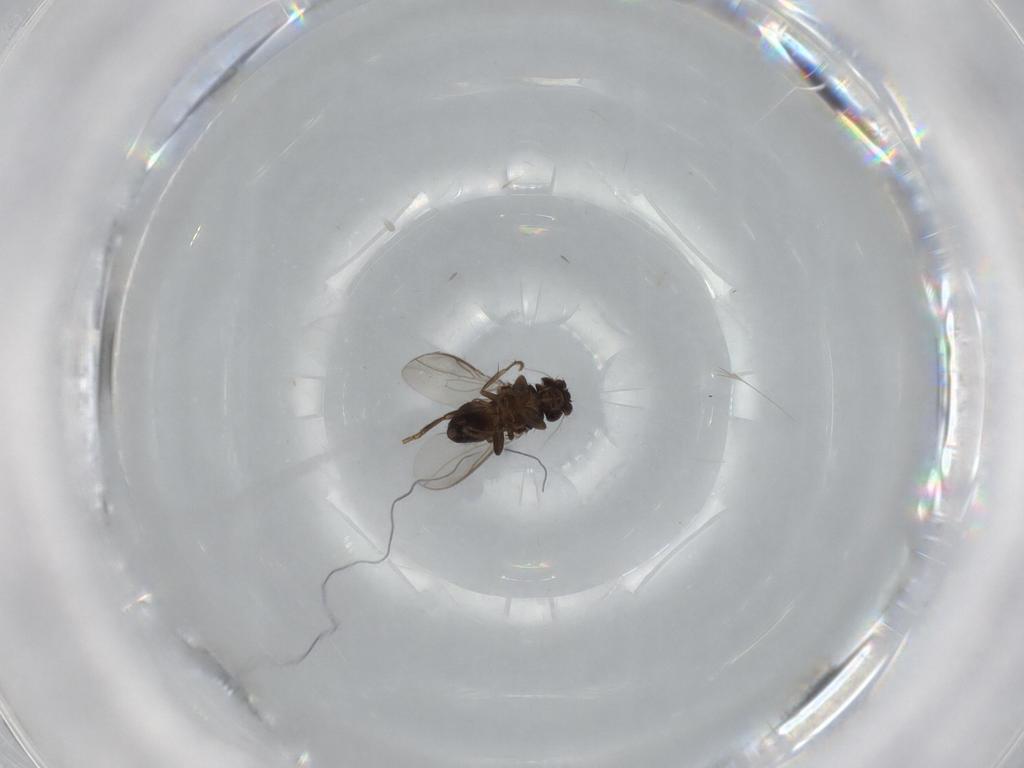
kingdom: Animalia
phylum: Arthropoda
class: Insecta
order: Diptera
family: Sphaeroceridae
